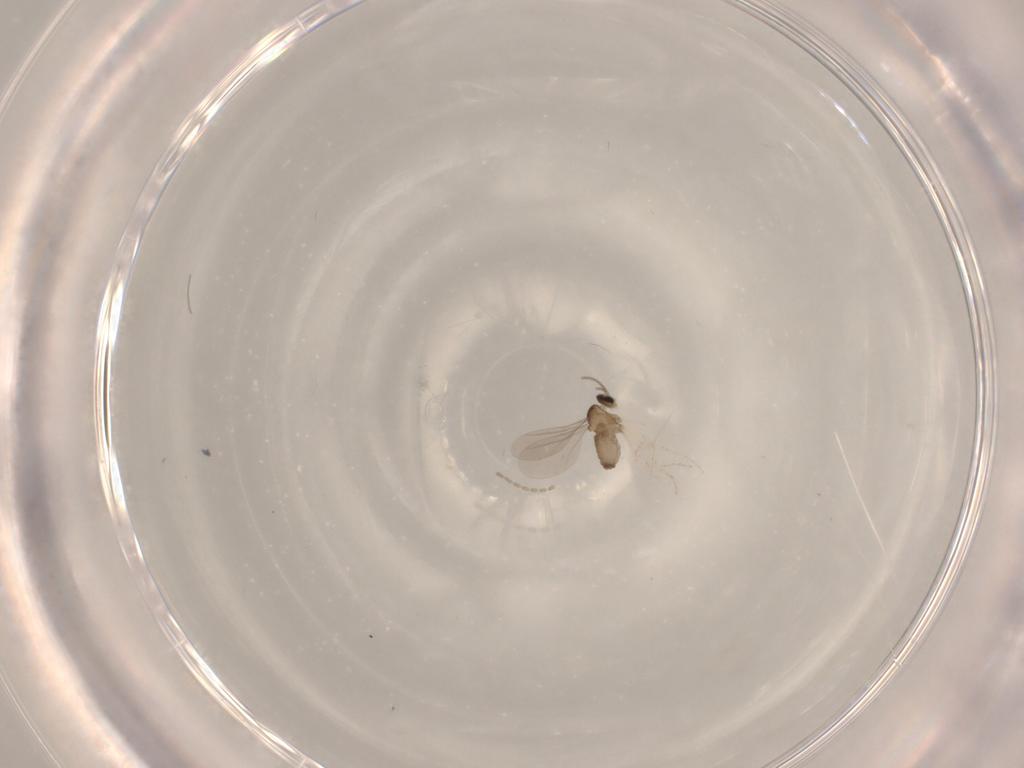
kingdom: Animalia
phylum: Arthropoda
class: Insecta
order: Diptera
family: Cecidomyiidae
